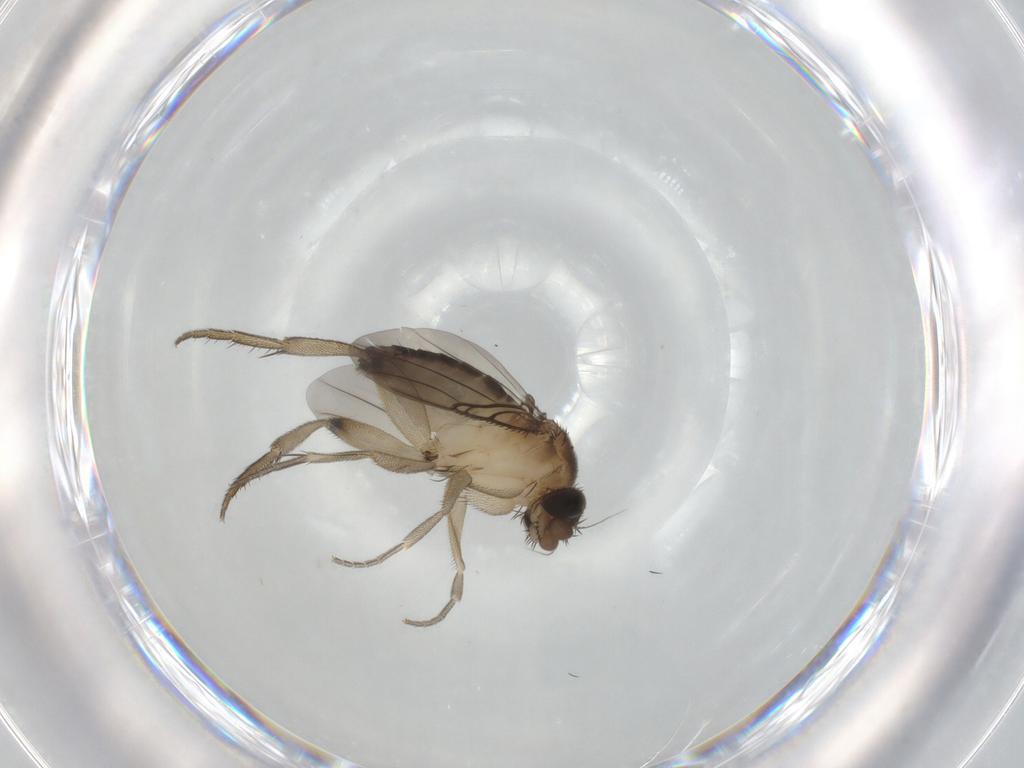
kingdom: Animalia
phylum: Arthropoda
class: Insecta
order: Diptera
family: Phoridae
